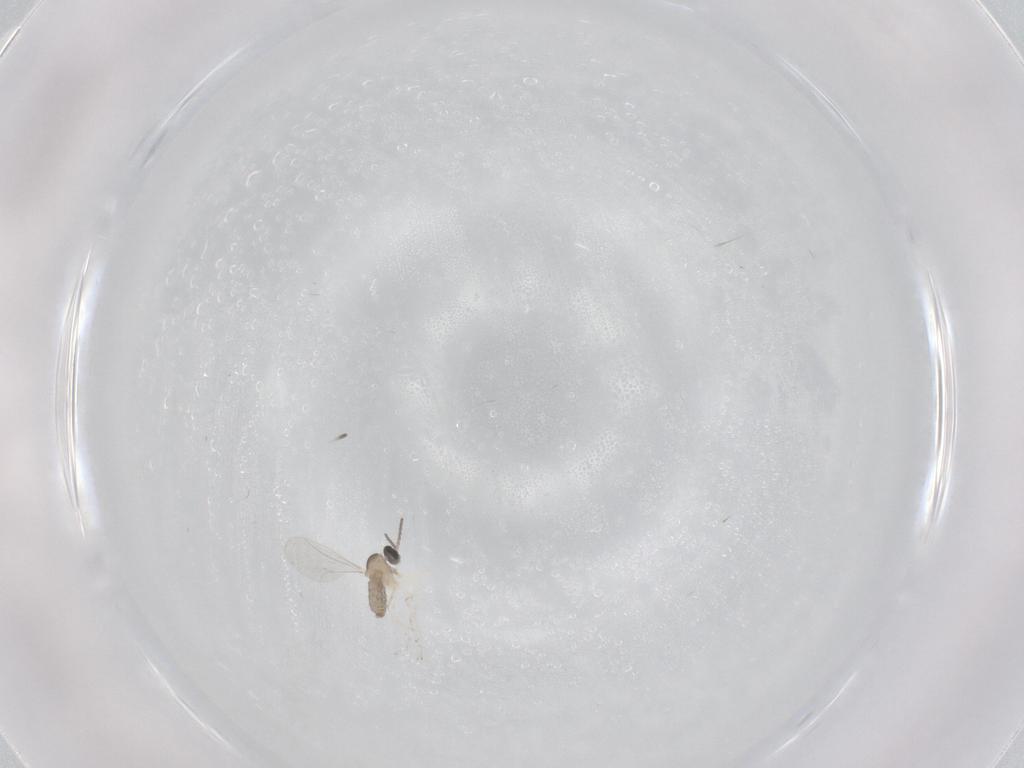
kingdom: Animalia
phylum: Arthropoda
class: Insecta
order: Diptera
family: Cecidomyiidae
